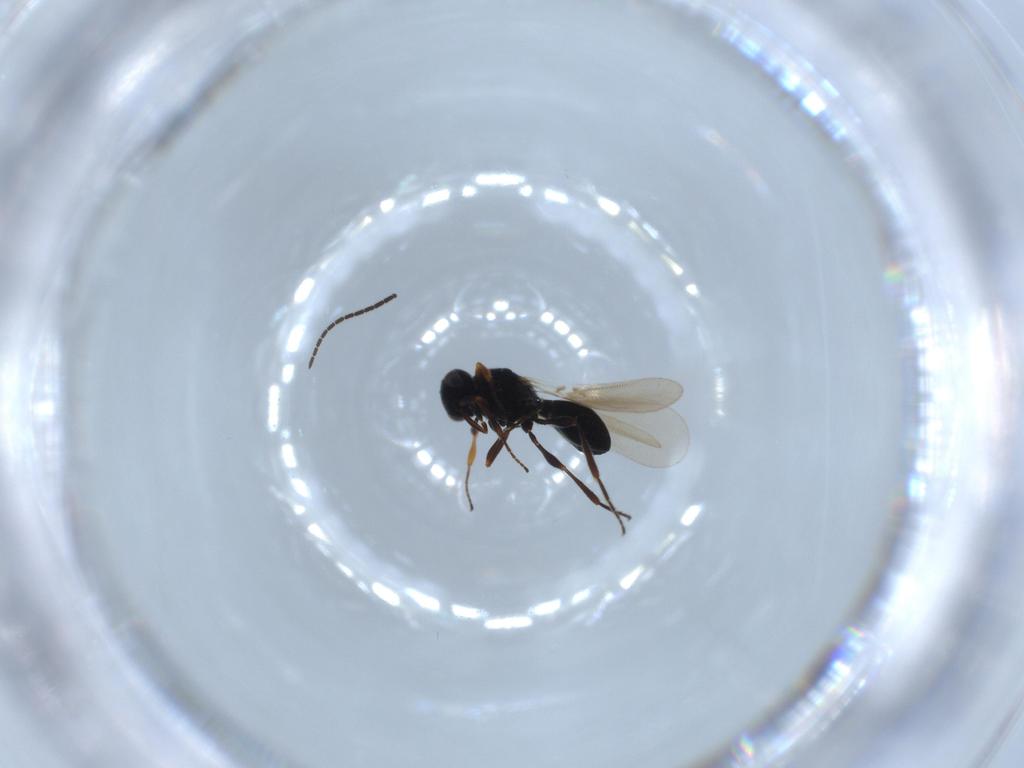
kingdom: Animalia
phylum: Arthropoda
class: Insecta
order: Hymenoptera
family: Platygastridae
